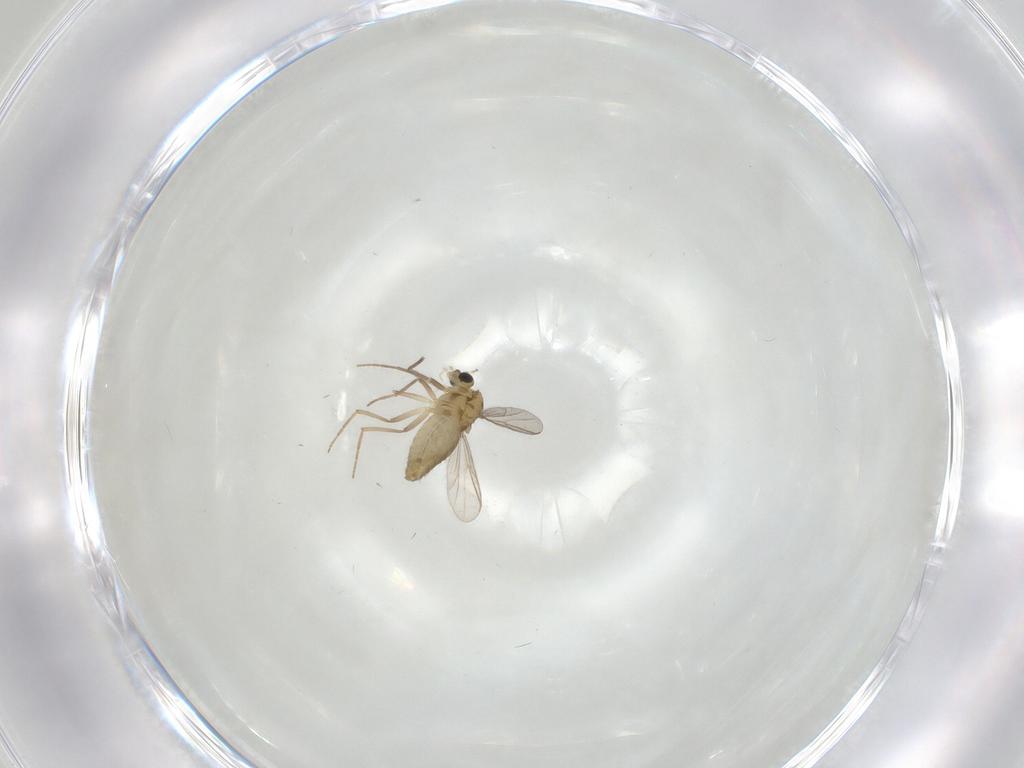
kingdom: Animalia
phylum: Arthropoda
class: Insecta
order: Diptera
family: Chironomidae
